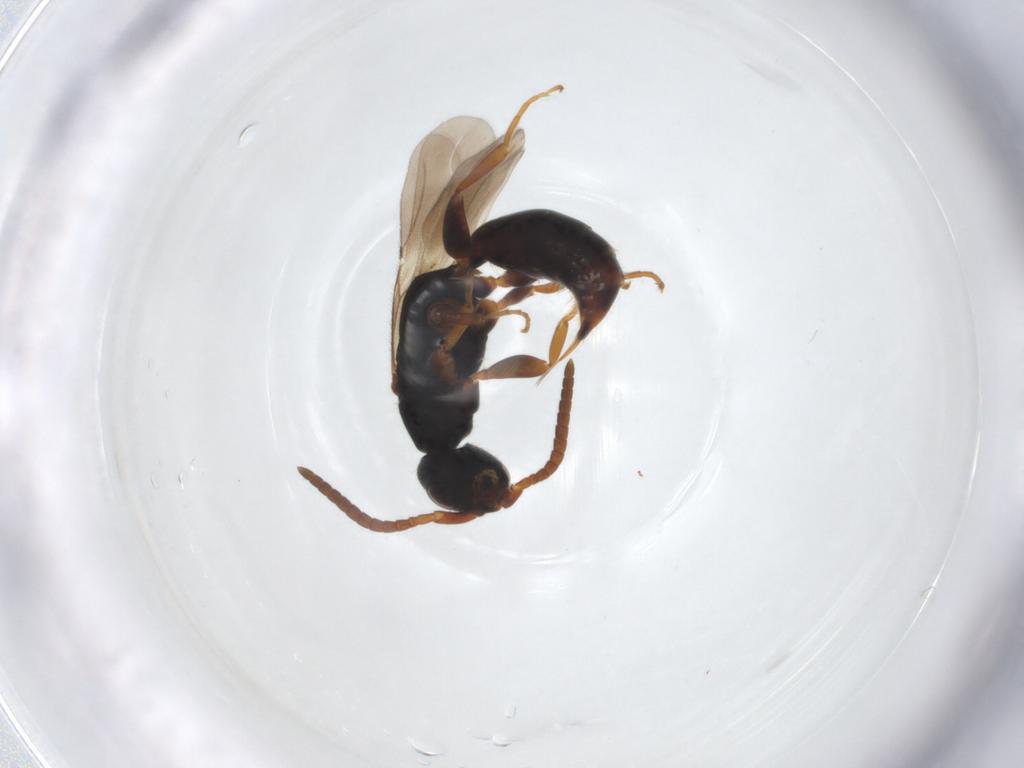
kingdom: Animalia
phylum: Arthropoda
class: Insecta
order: Hymenoptera
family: Bethylidae
